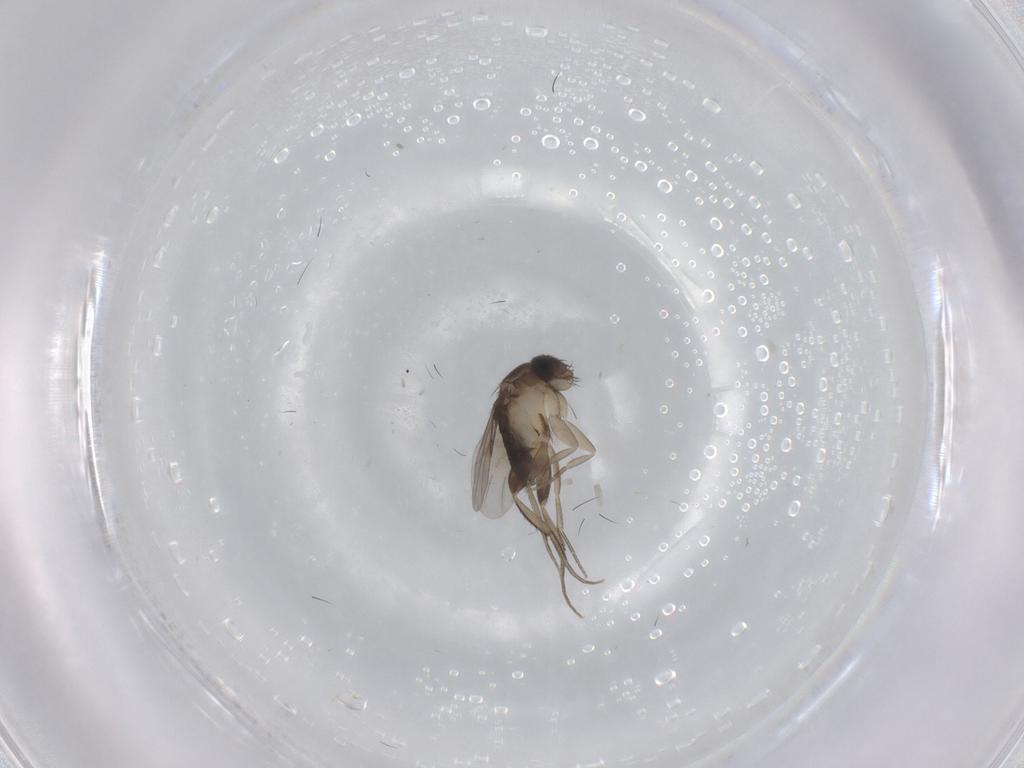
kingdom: Animalia
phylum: Arthropoda
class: Insecta
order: Diptera
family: Phoridae
